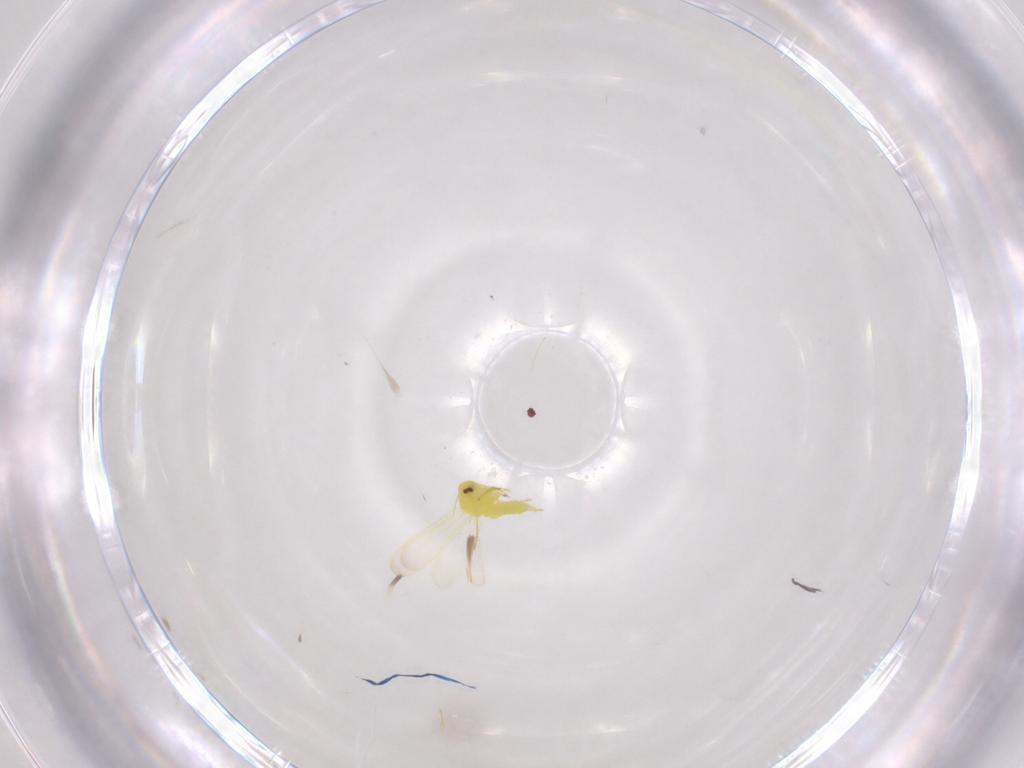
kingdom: Animalia
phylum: Arthropoda
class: Insecta
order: Hemiptera
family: Aleyrodidae
